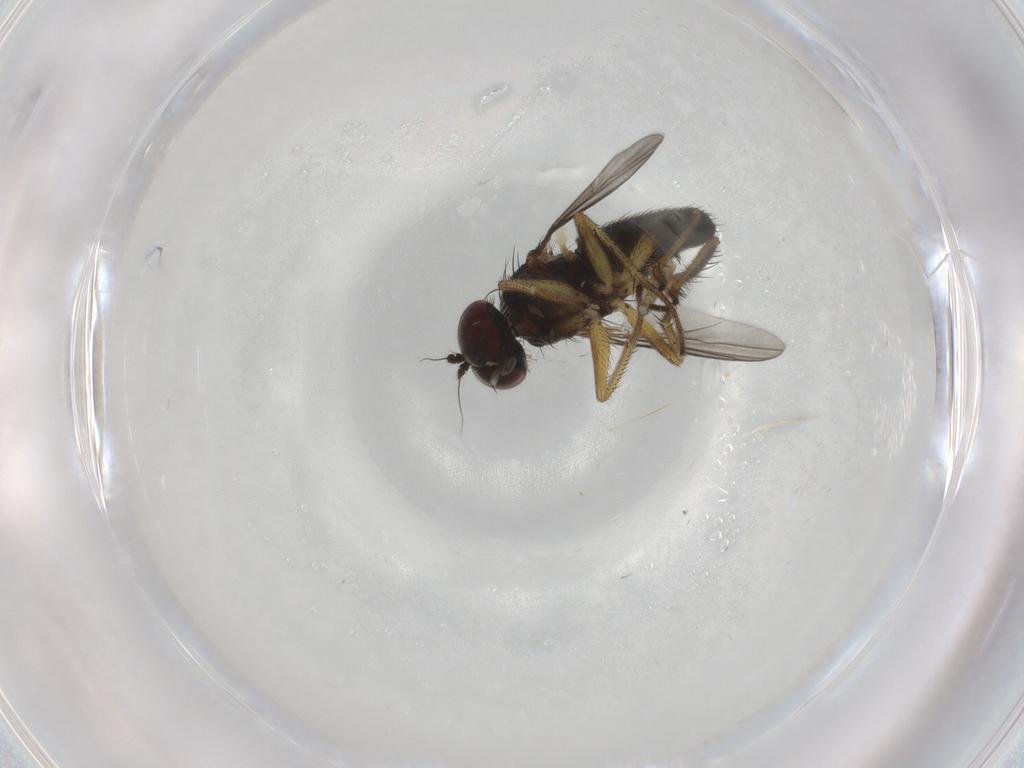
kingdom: Animalia
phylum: Arthropoda
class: Insecta
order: Diptera
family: Dolichopodidae
